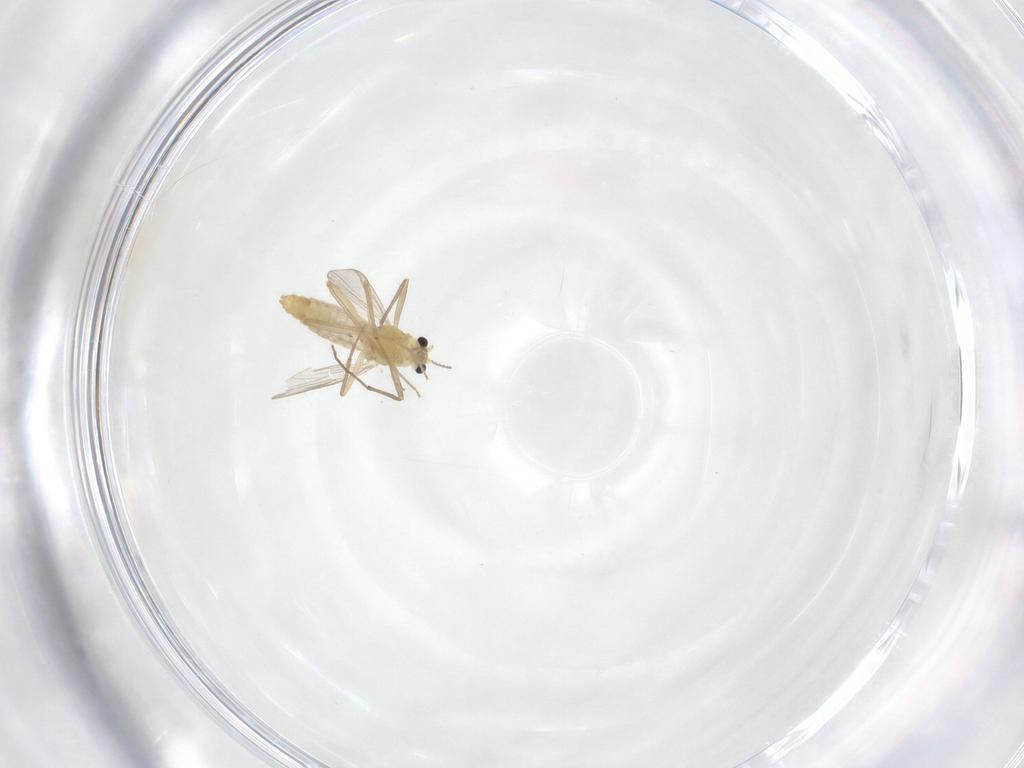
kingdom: Animalia
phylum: Arthropoda
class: Insecta
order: Diptera
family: Chironomidae
